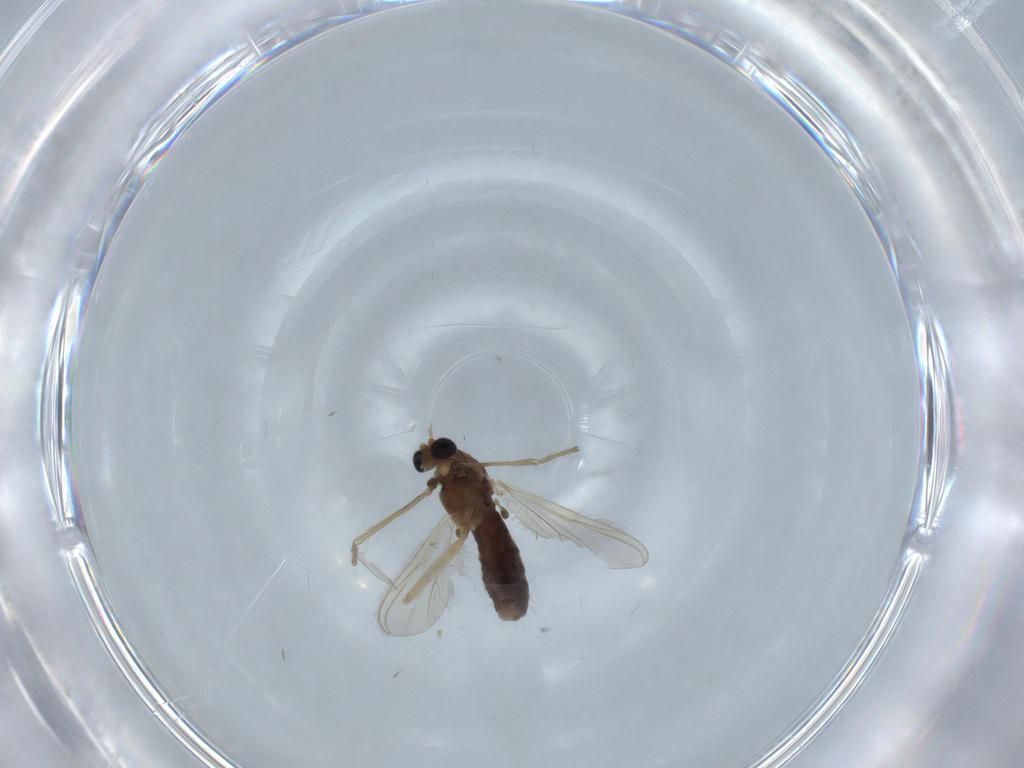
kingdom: Animalia
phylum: Arthropoda
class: Insecta
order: Diptera
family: Chironomidae
